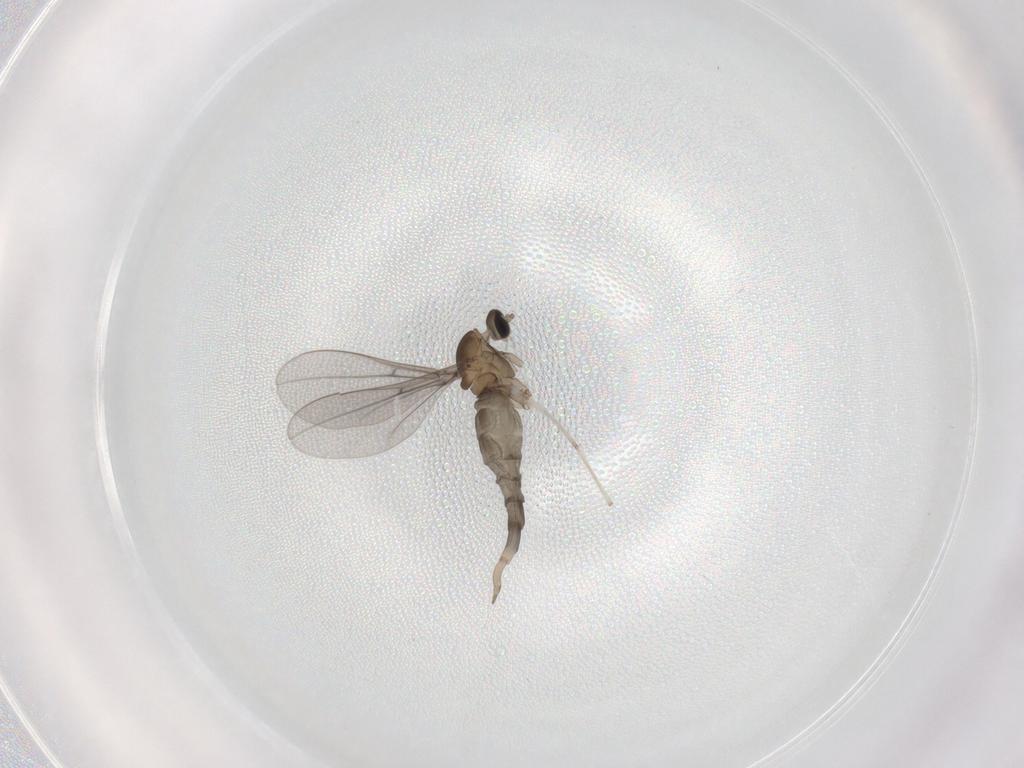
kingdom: Animalia
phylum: Arthropoda
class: Insecta
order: Diptera
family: Cecidomyiidae
